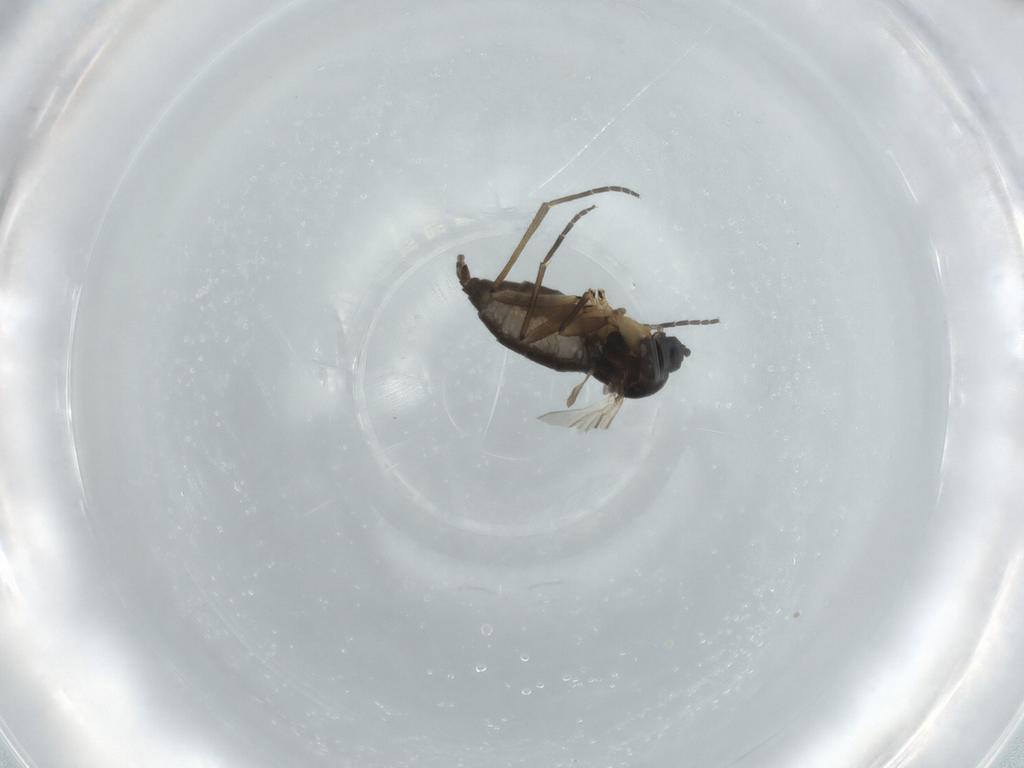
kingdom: Animalia
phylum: Arthropoda
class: Insecta
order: Diptera
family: Sciaridae
